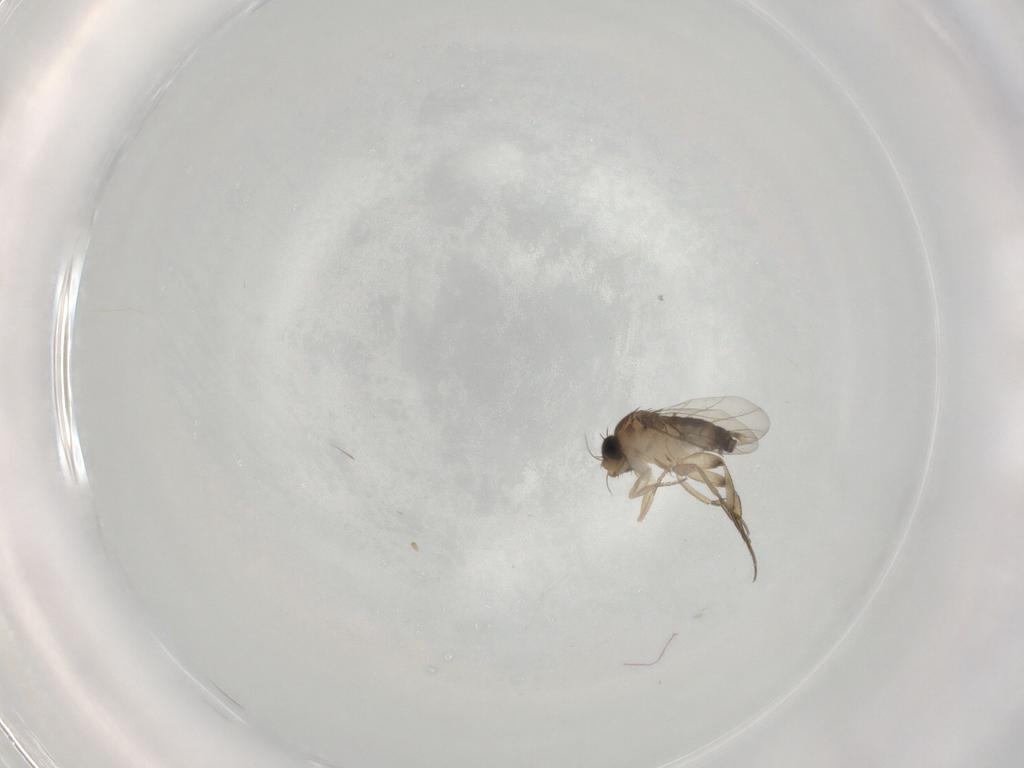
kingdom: Animalia
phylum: Arthropoda
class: Insecta
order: Diptera
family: Phoridae
